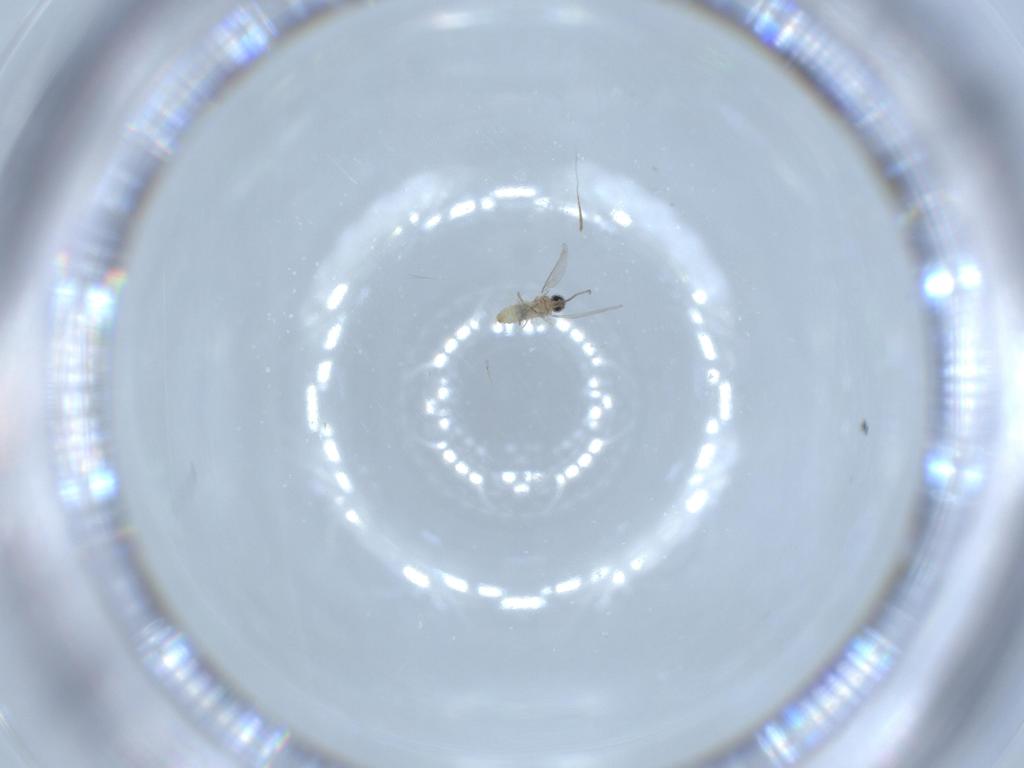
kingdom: Animalia
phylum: Arthropoda
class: Insecta
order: Diptera
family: Cecidomyiidae
